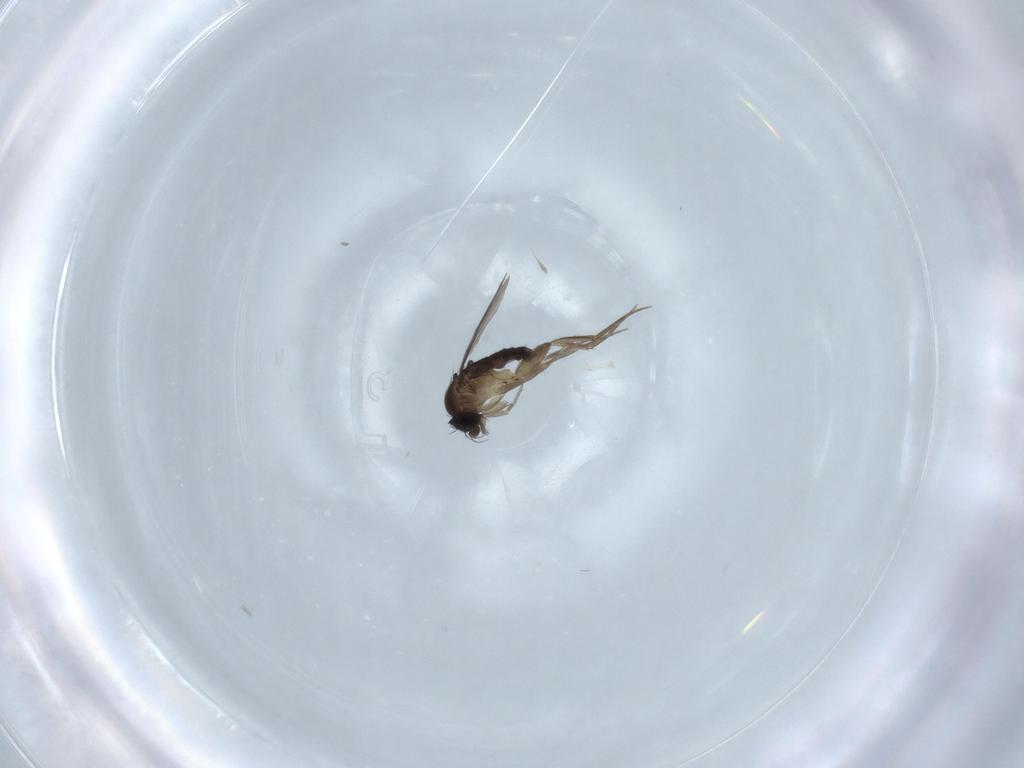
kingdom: Animalia
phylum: Arthropoda
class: Insecta
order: Diptera
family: Phoridae
